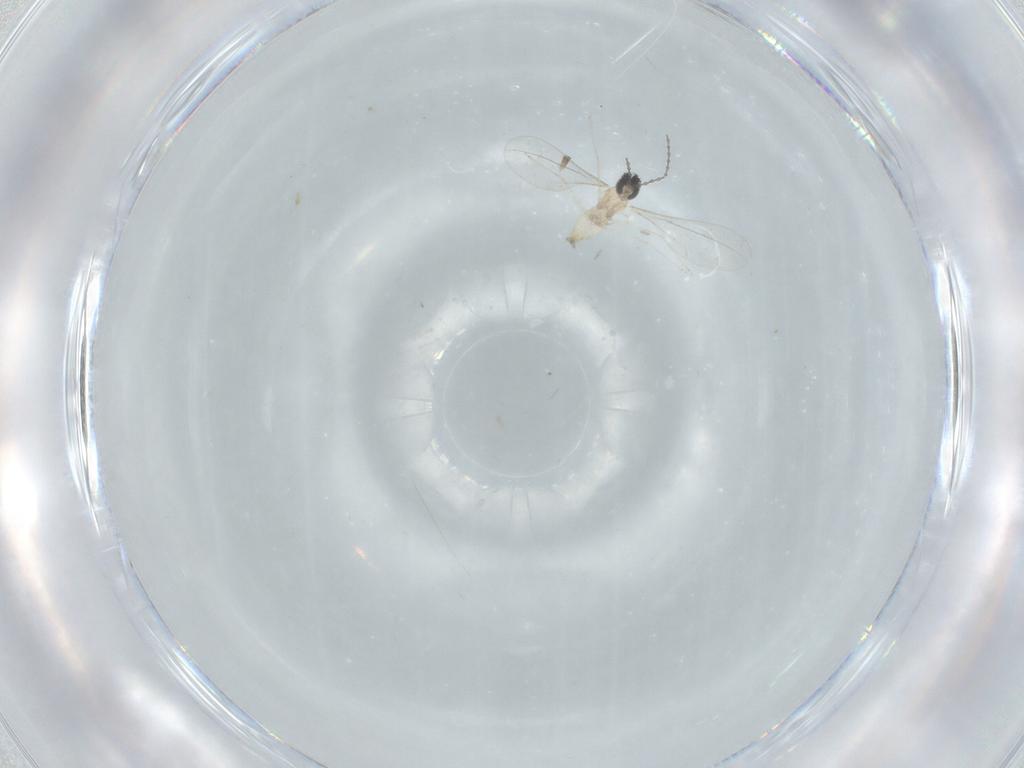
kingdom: Animalia
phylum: Arthropoda
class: Insecta
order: Diptera
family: Cecidomyiidae
